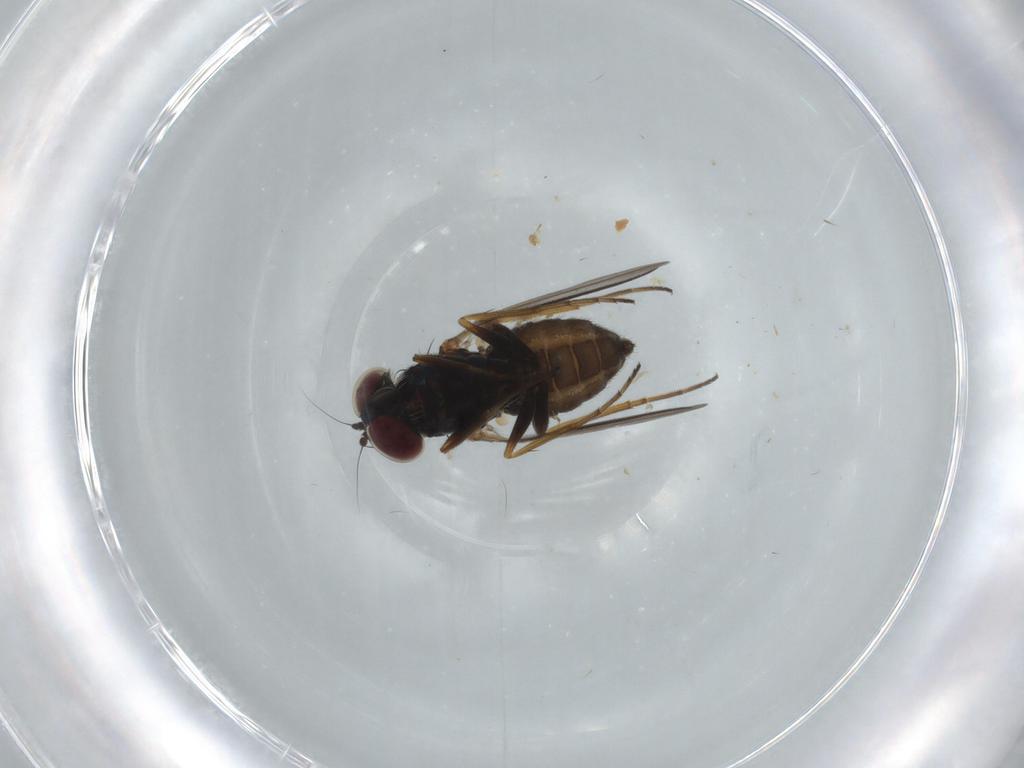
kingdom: Animalia
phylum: Arthropoda
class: Insecta
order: Diptera
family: Dolichopodidae
